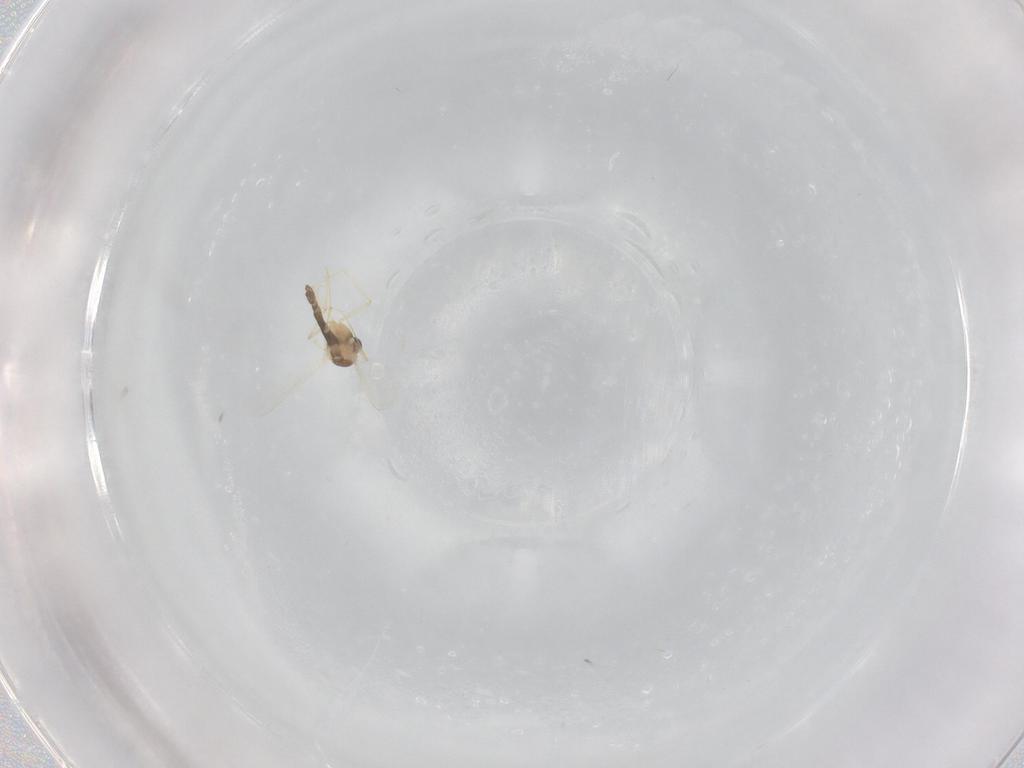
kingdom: Animalia
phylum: Arthropoda
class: Insecta
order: Diptera
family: Chironomidae
